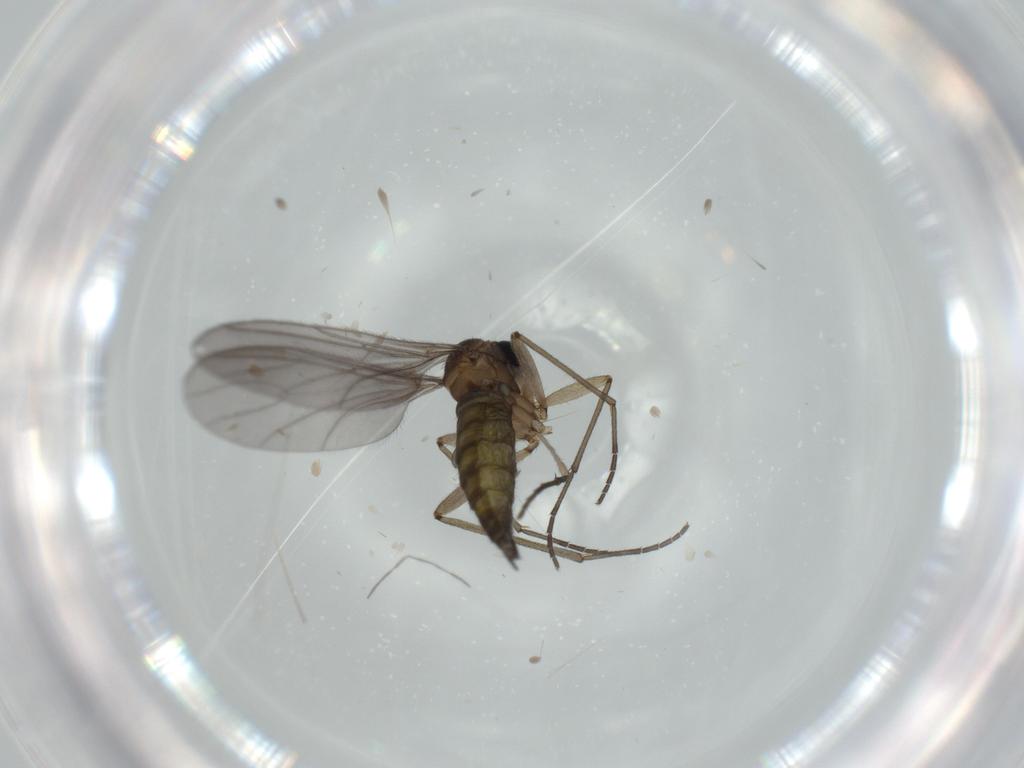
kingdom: Animalia
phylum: Arthropoda
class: Insecta
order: Diptera
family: Sciaridae
